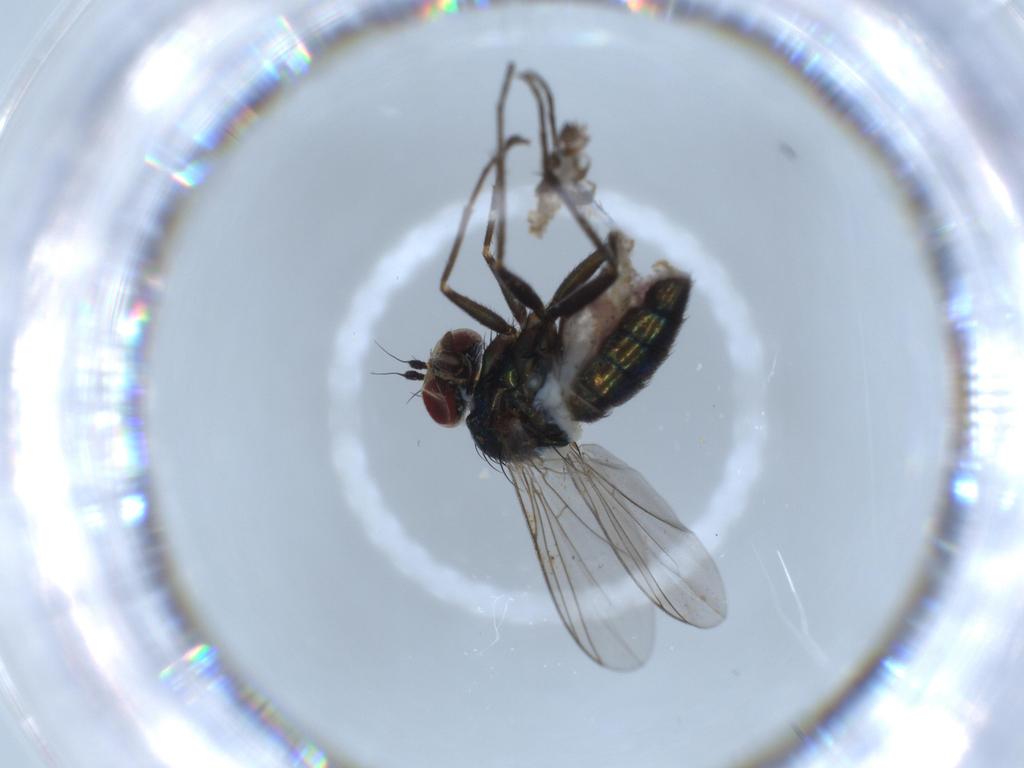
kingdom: Animalia
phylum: Arthropoda
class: Insecta
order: Diptera
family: Dolichopodidae
